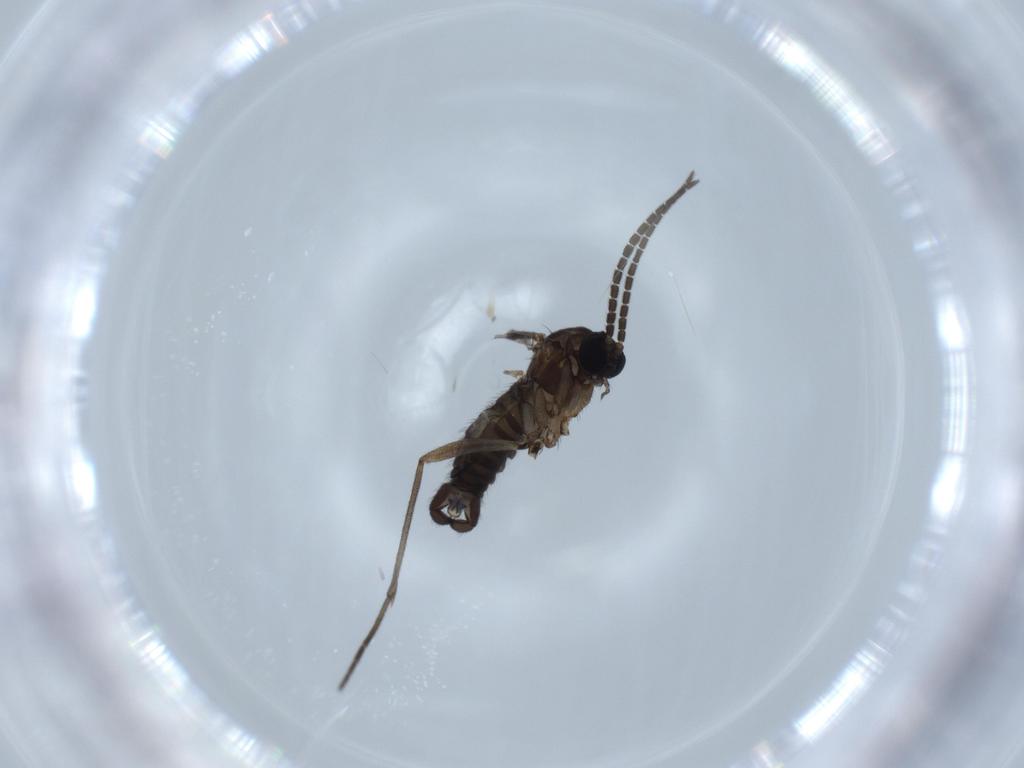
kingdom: Animalia
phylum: Arthropoda
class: Insecta
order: Diptera
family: Sciaridae
